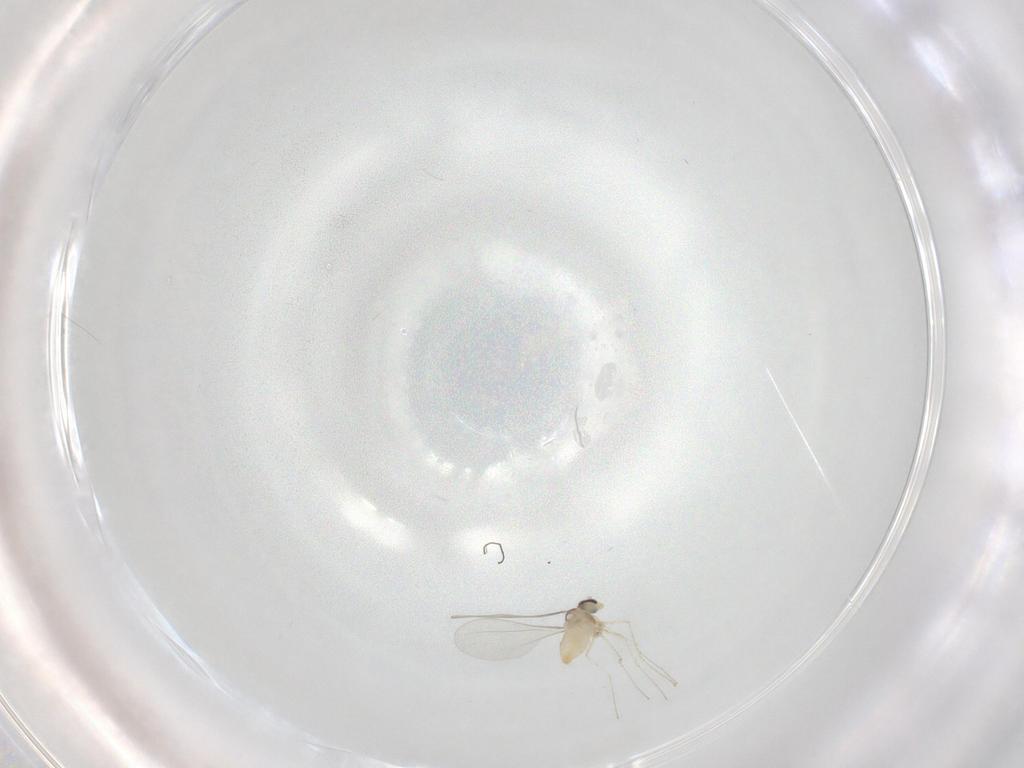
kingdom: Animalia
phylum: Arthropoda
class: Insecta
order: Diptera
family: Cecidomyiidae
